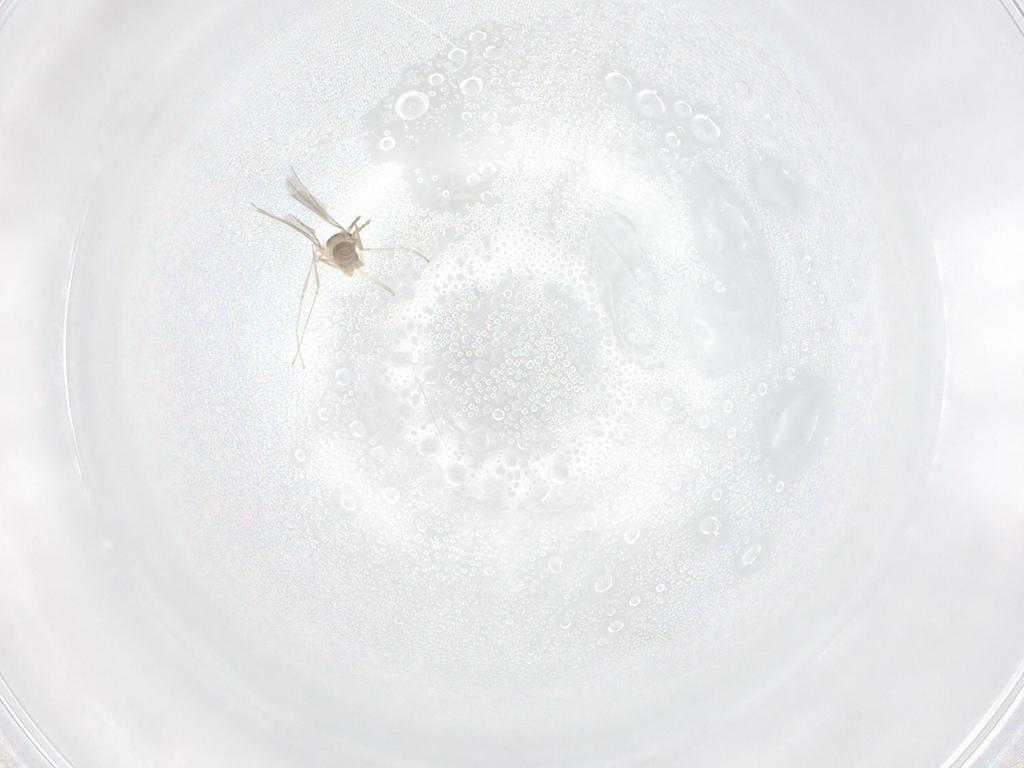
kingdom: Animalia
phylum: Arthropoda
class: Insecta
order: Diptera
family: Cecidomyiidae
